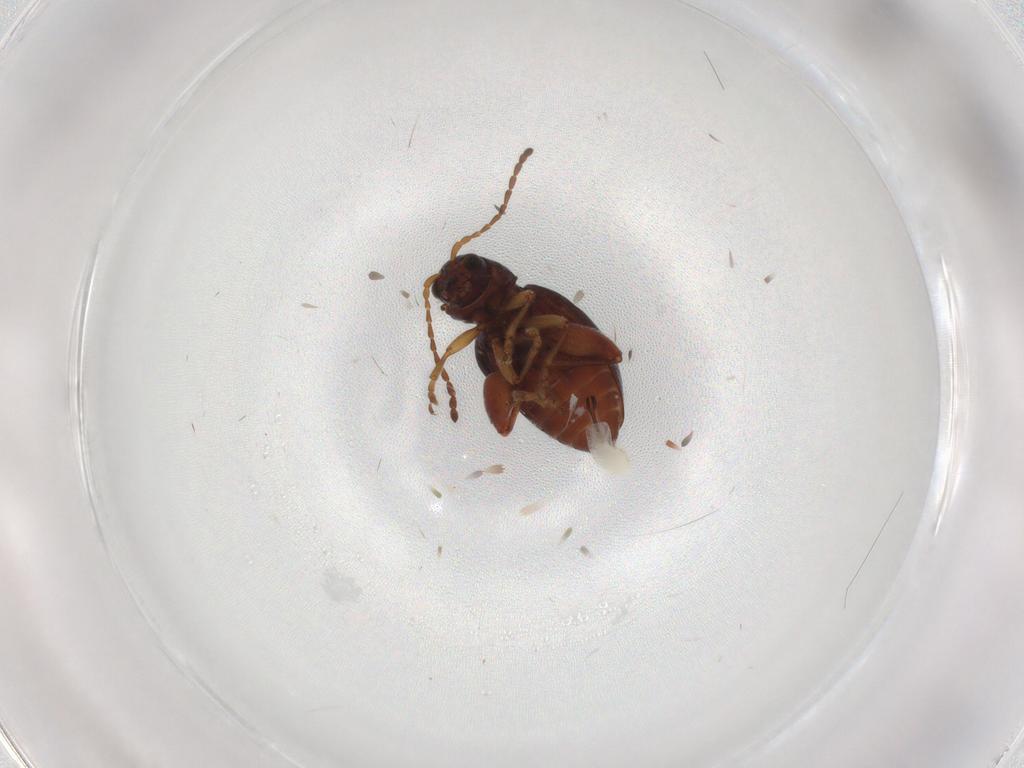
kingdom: Animalia
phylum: Arthropoda
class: Insecta
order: Coleoptera
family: Chrysomelidae
